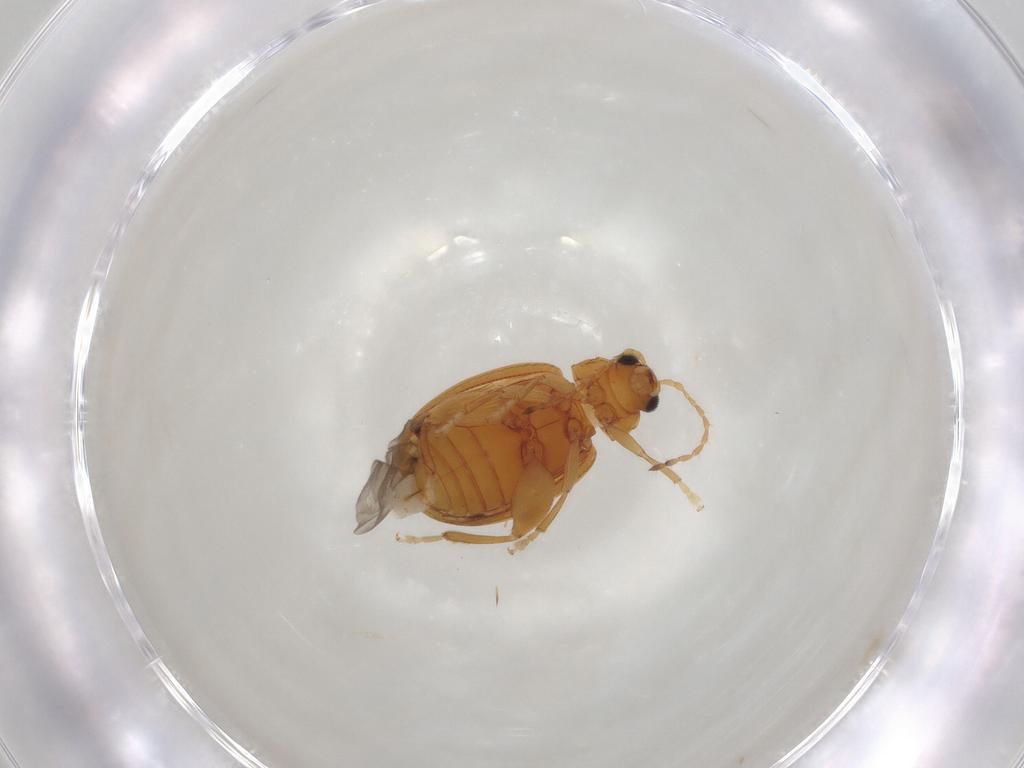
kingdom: Animalia
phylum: Arthropoda
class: Insecta
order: Coleoptera
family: Chrysomelidae
